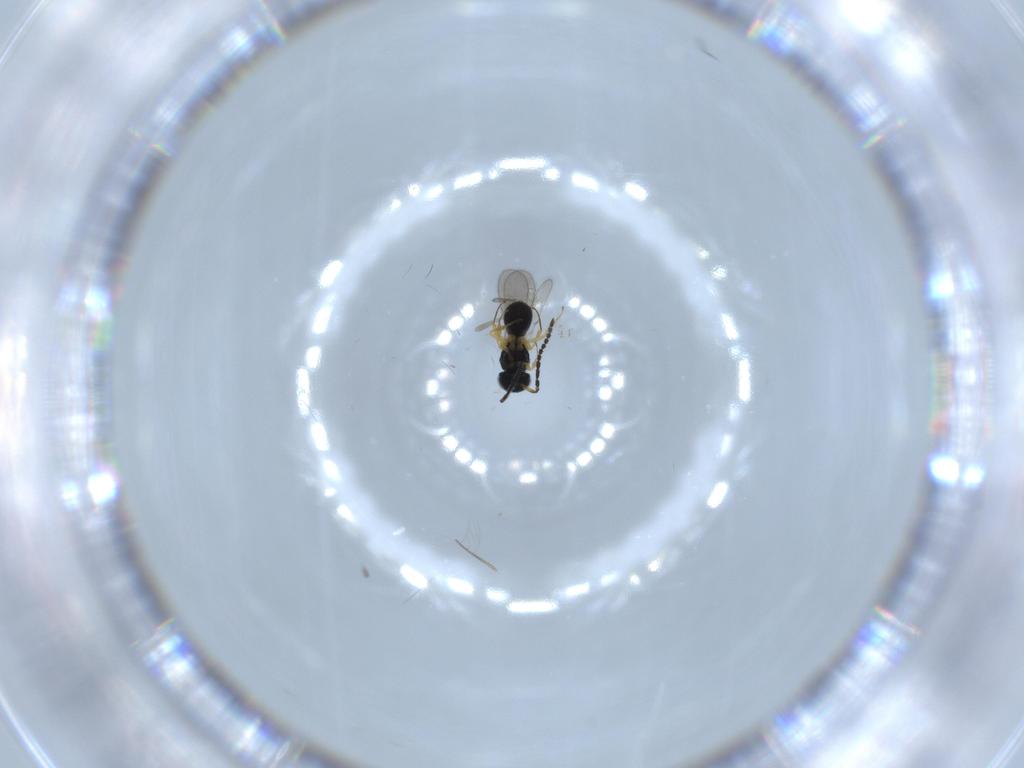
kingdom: Animalia
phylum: Arthropoda
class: Insecta
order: Hymenoptera
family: Scelionidae
